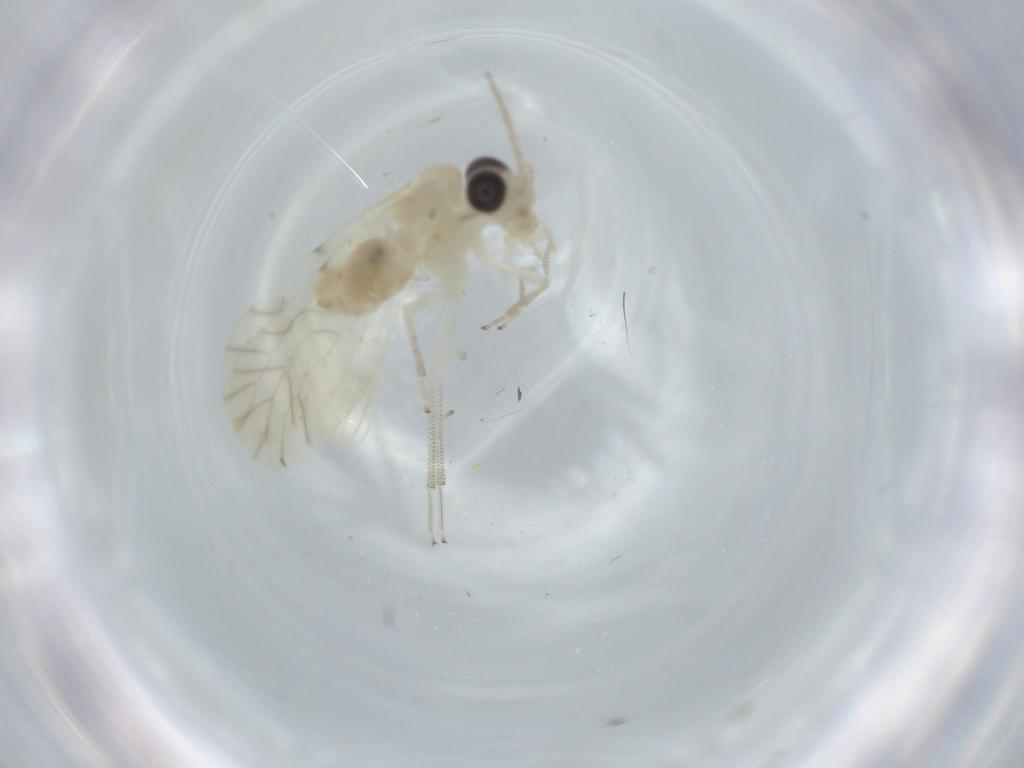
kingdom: Animalia
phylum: Arthropoda
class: Insecta
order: Psocodea
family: Caeciliusidae
